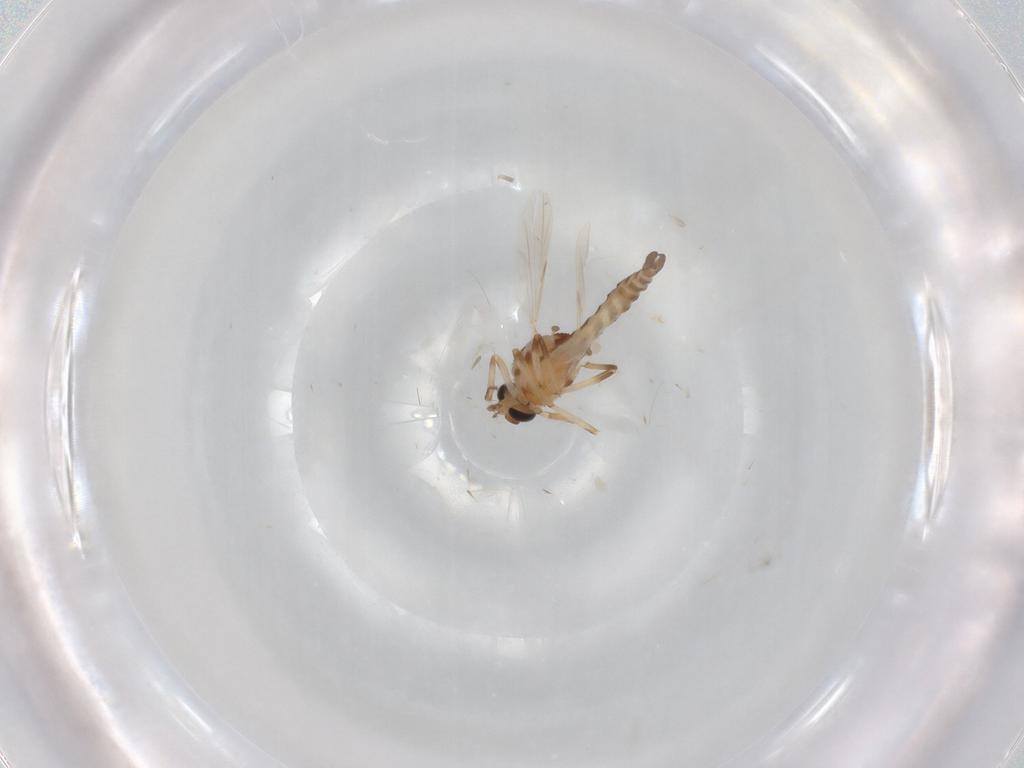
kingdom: Animalia
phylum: Arthropoda
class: Insecta
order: Diptera
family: Ceratopogonidae
